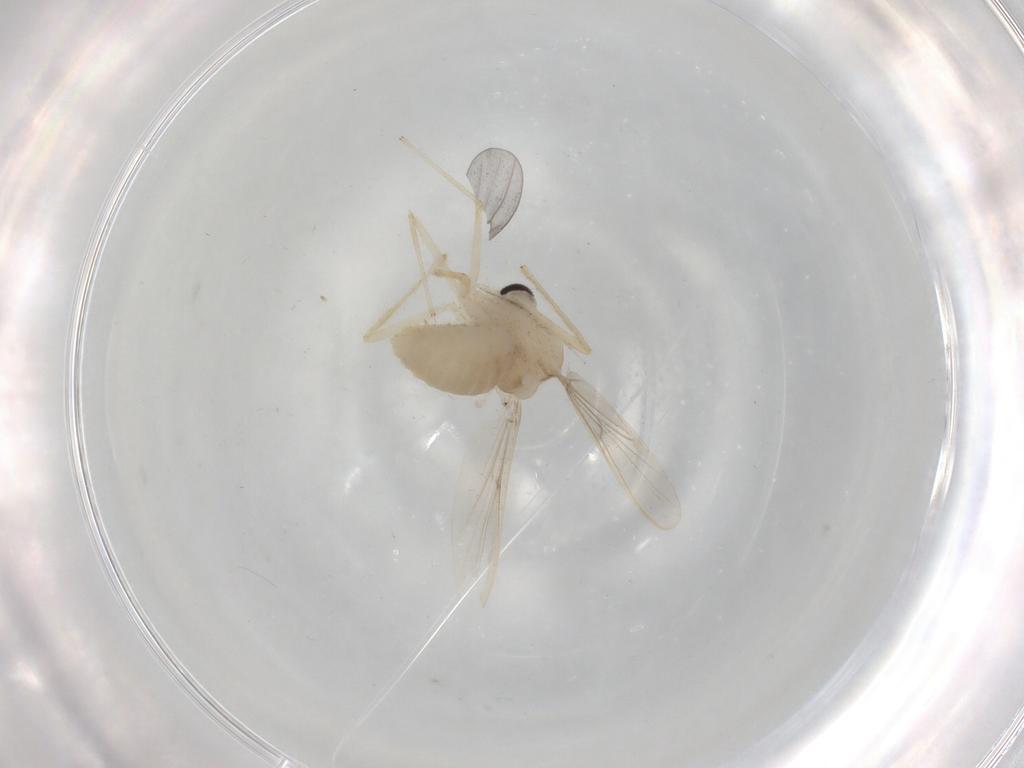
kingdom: Animalia
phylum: Arthropoda
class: Insecta
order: Diptera
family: Chironomidae
